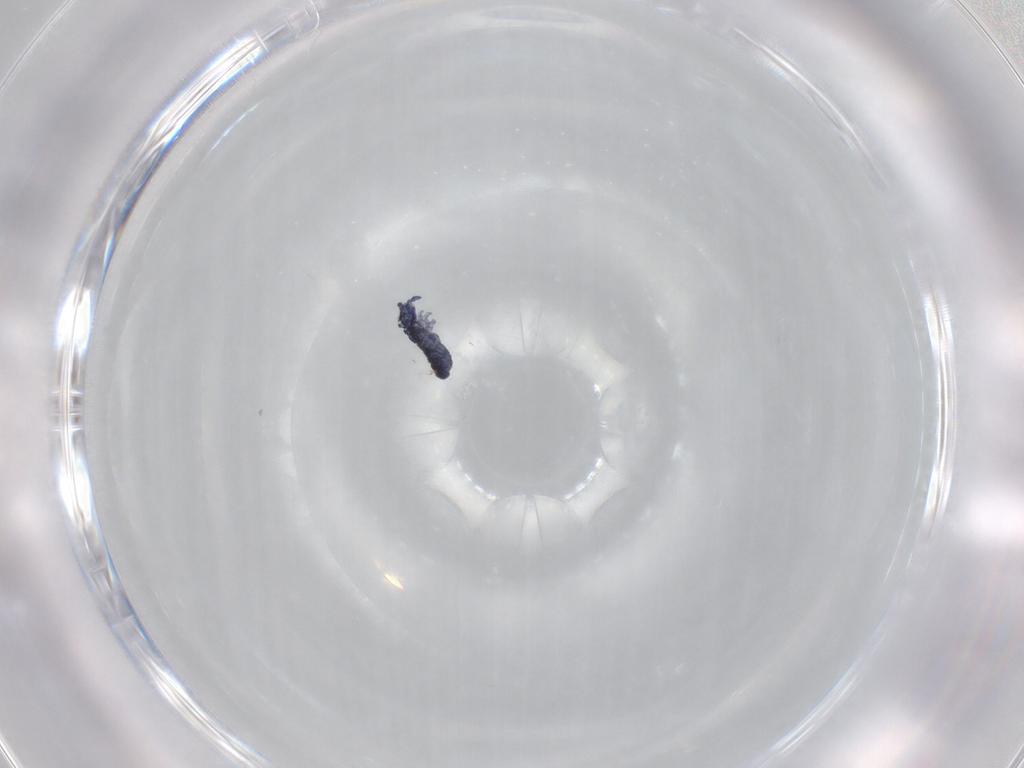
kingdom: Animalia
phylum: Arthropoda
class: Collembola
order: Poduromorpha
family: Hypogastruridae
